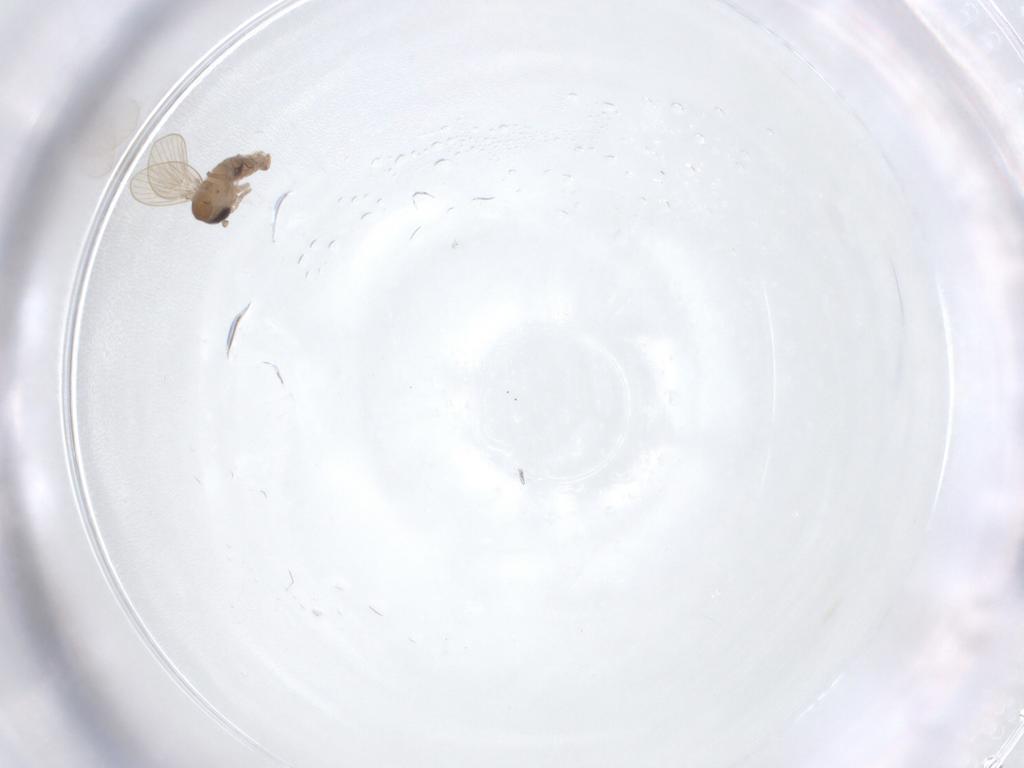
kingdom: Animalia
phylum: Arthropoda
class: Insecta
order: Diptera
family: Psychodidae
